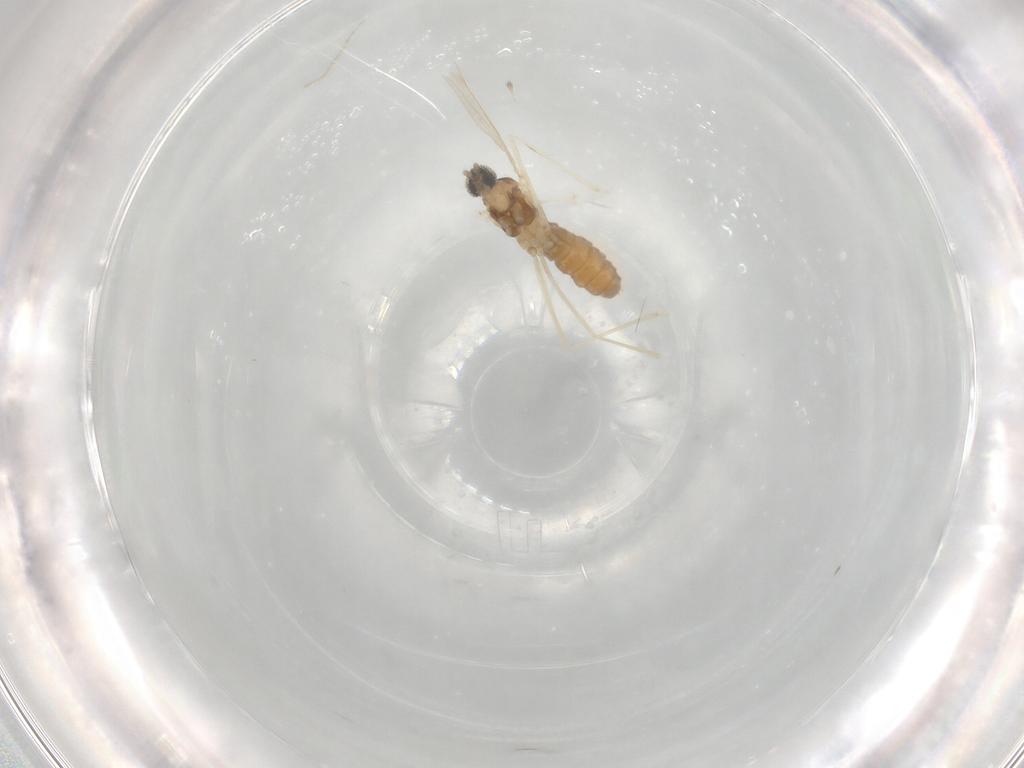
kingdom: Animalia
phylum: Arthropoda
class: Insecta
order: Diptera
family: Cecidomyiidae
